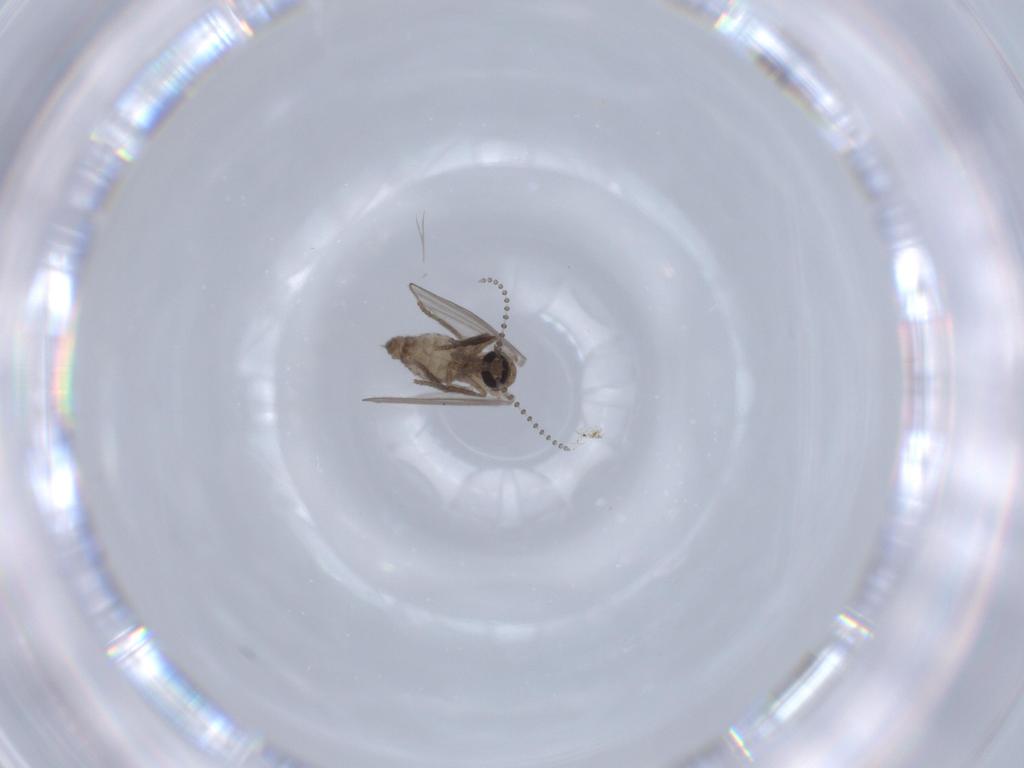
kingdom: Animalia
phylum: Arthropoda
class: Insecta
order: Diptera
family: Psychodidae
